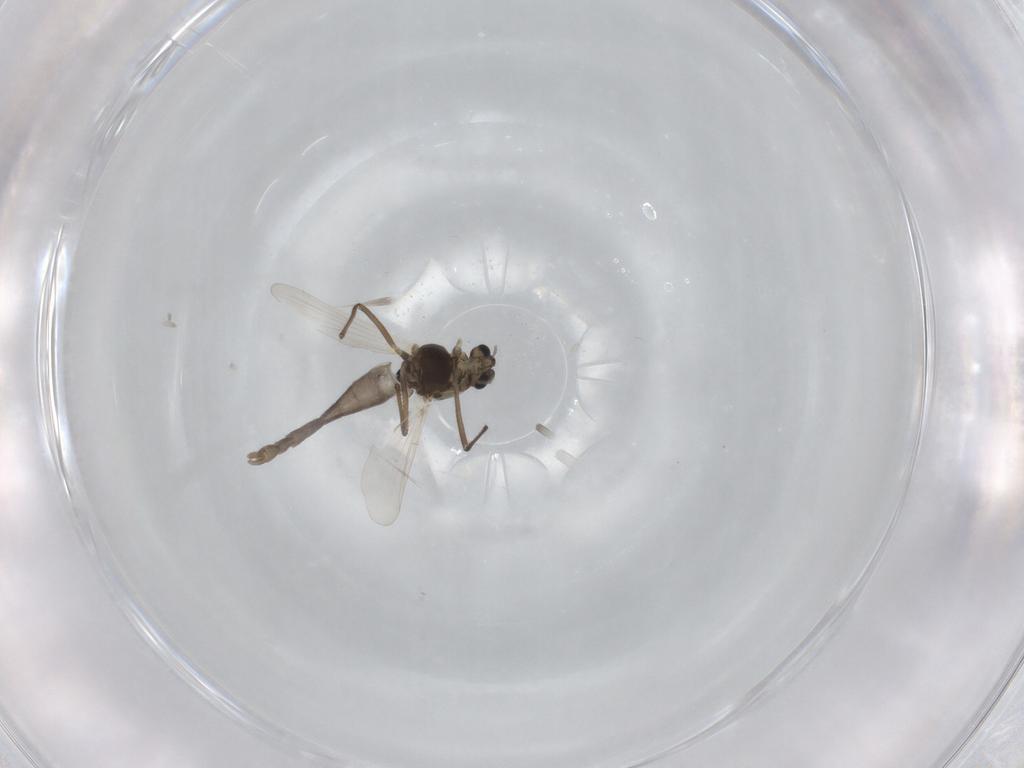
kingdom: Animalia
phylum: Arthropoda
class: Insecta
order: Diptera
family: Chironomidae
